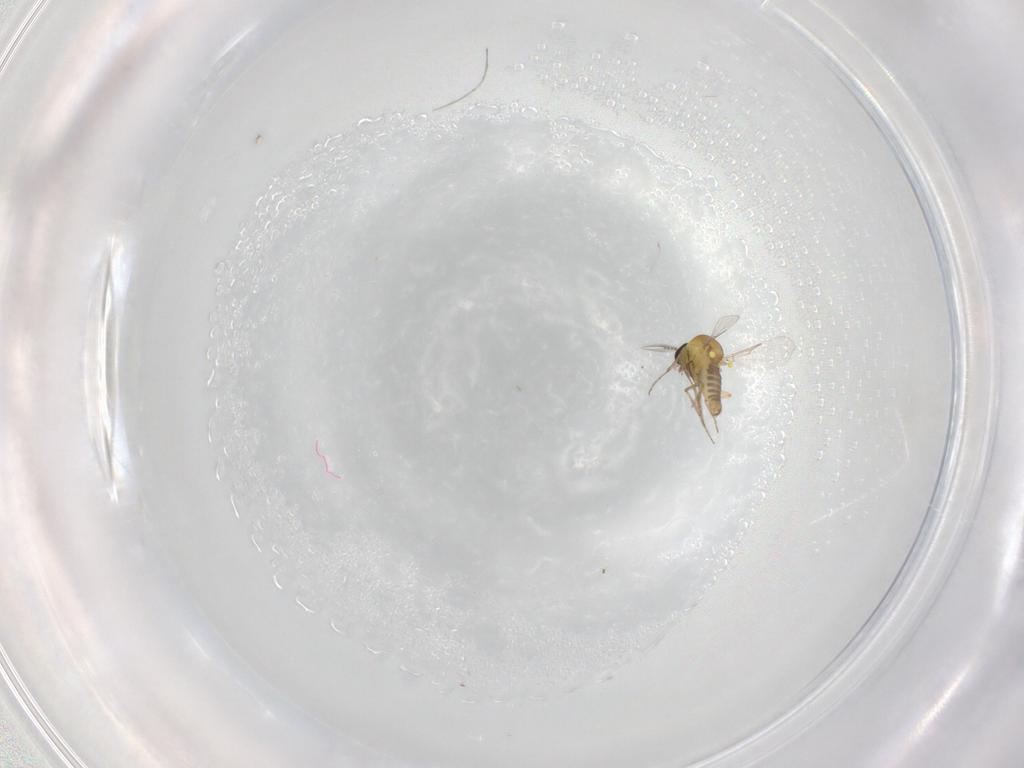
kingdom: Animalia
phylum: Arthropoda
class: Insecta
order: Diptera
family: Ceratopogonidae
